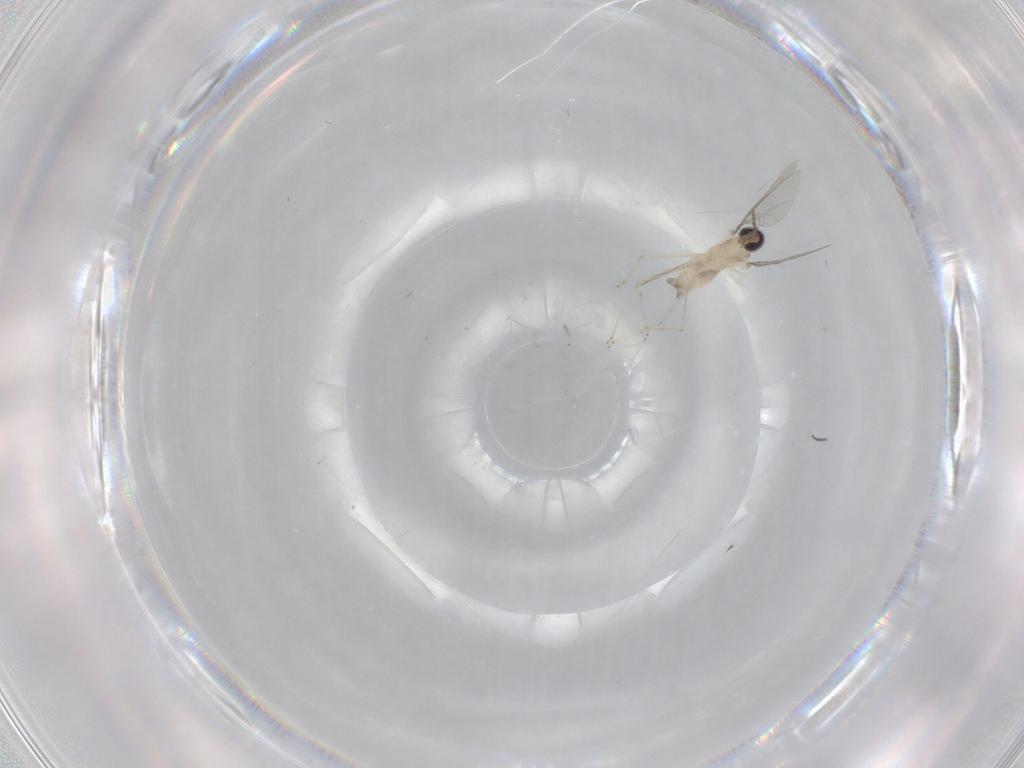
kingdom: Animalia
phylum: Arthropoda
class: Insecta
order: Diptera
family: Cecidomyiidae
